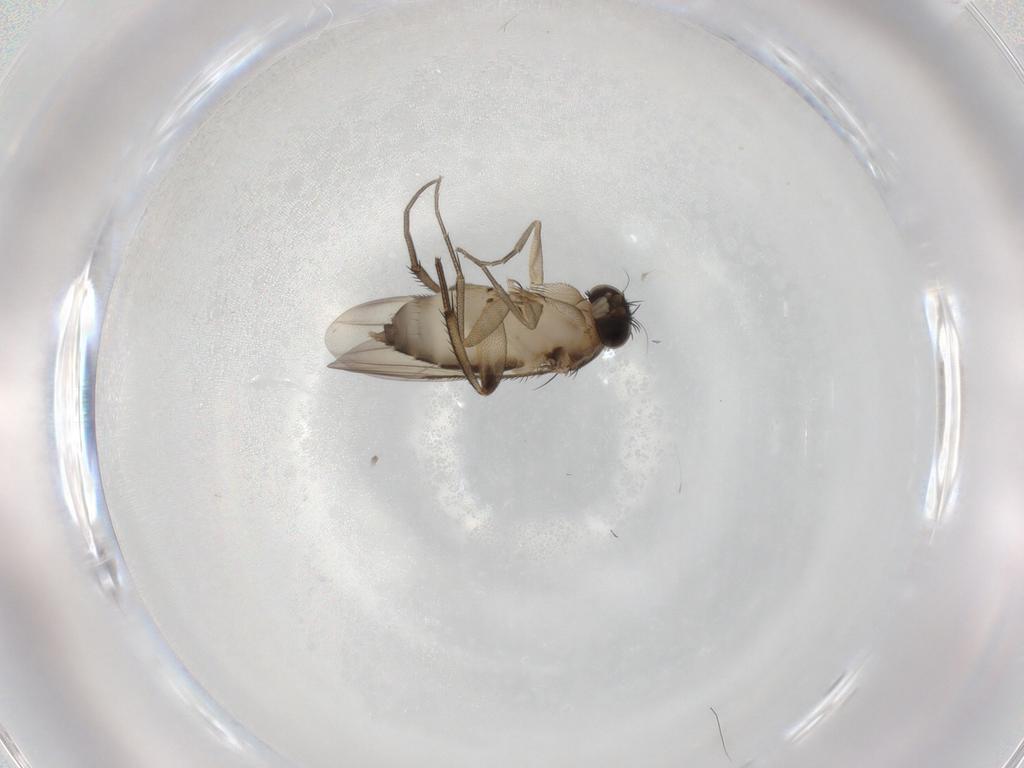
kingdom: Animalia
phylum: Arthropoda
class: Insecta
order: Diptera
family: Phoridae
